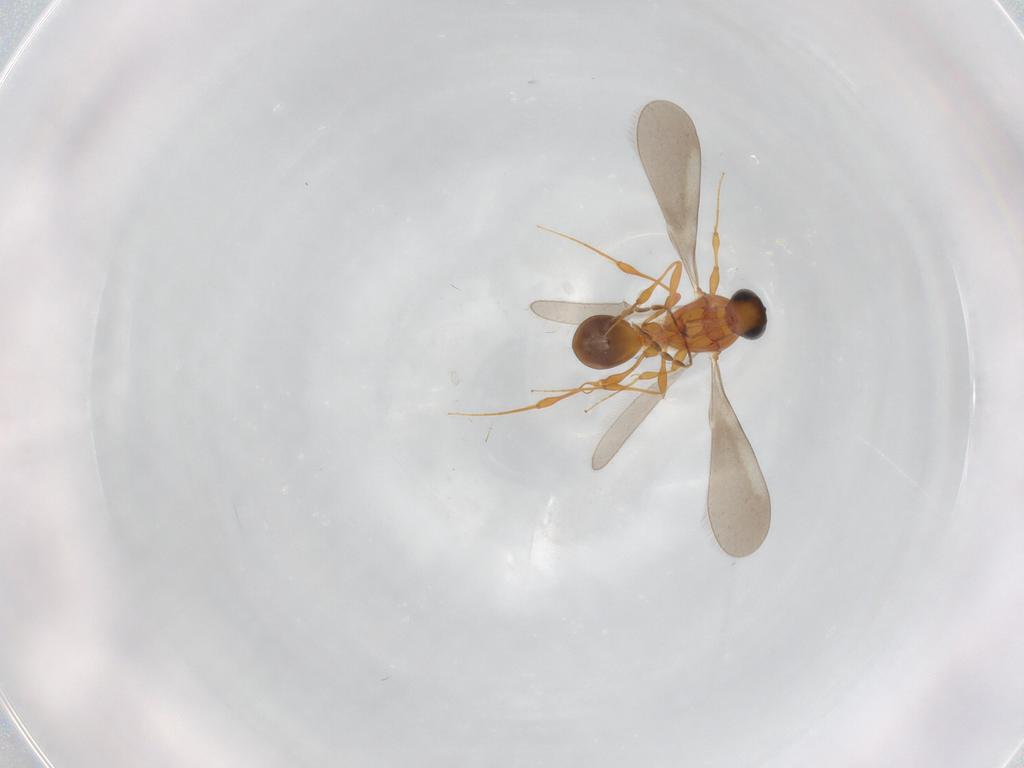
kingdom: Animalia
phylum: Arthropoda
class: Insecta
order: Hymenoptera
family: Platygastridae
